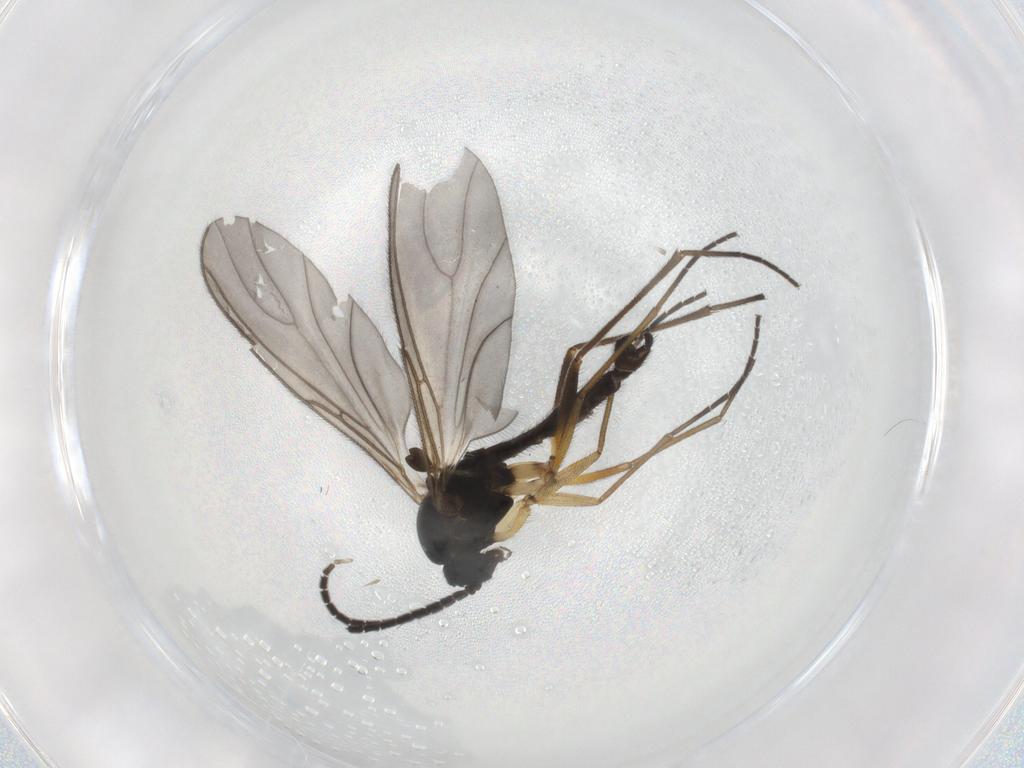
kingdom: Animalia
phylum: Arthropoda
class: Insecta
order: Diptera
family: Sciaridae
